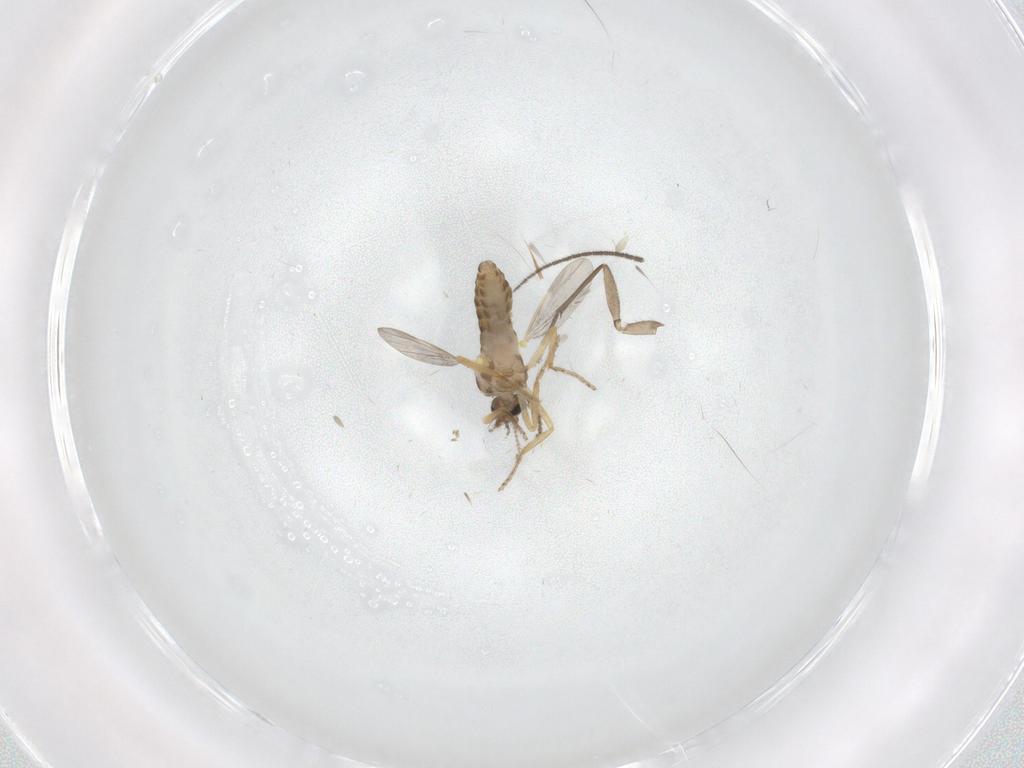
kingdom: Animalia
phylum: Arthropoda
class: Insecta
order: Diptera
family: Ceratopogonidae
